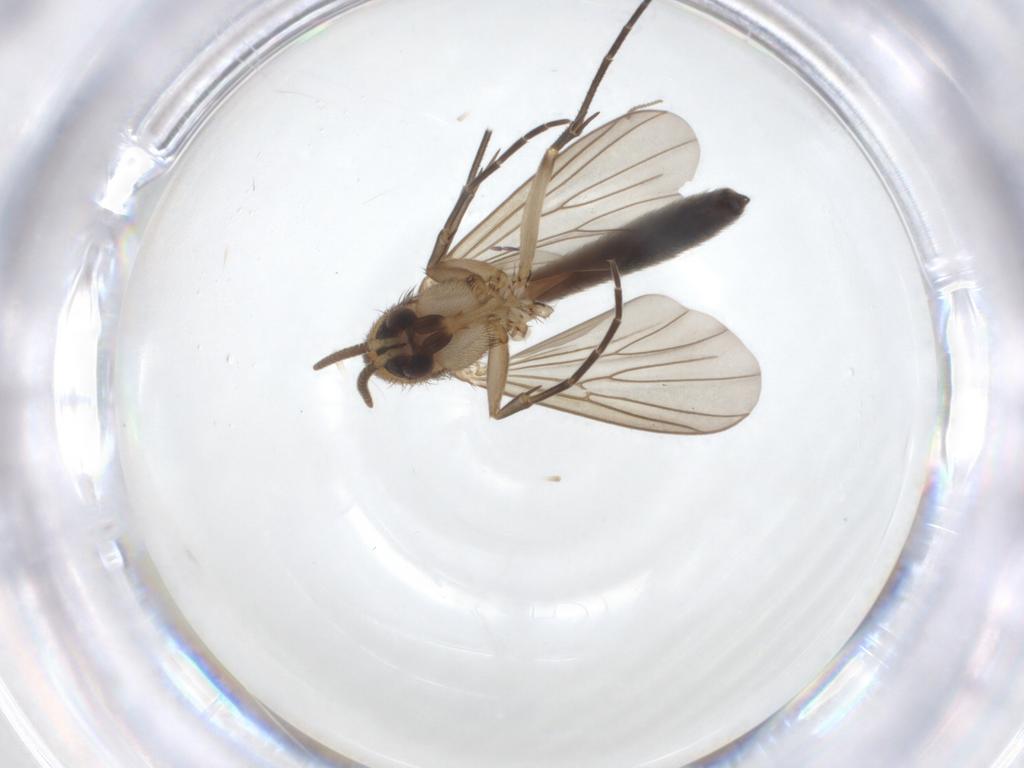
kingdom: Animalia
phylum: Arthropoda
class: Insecta
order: Diptera
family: Mycetophilidae
